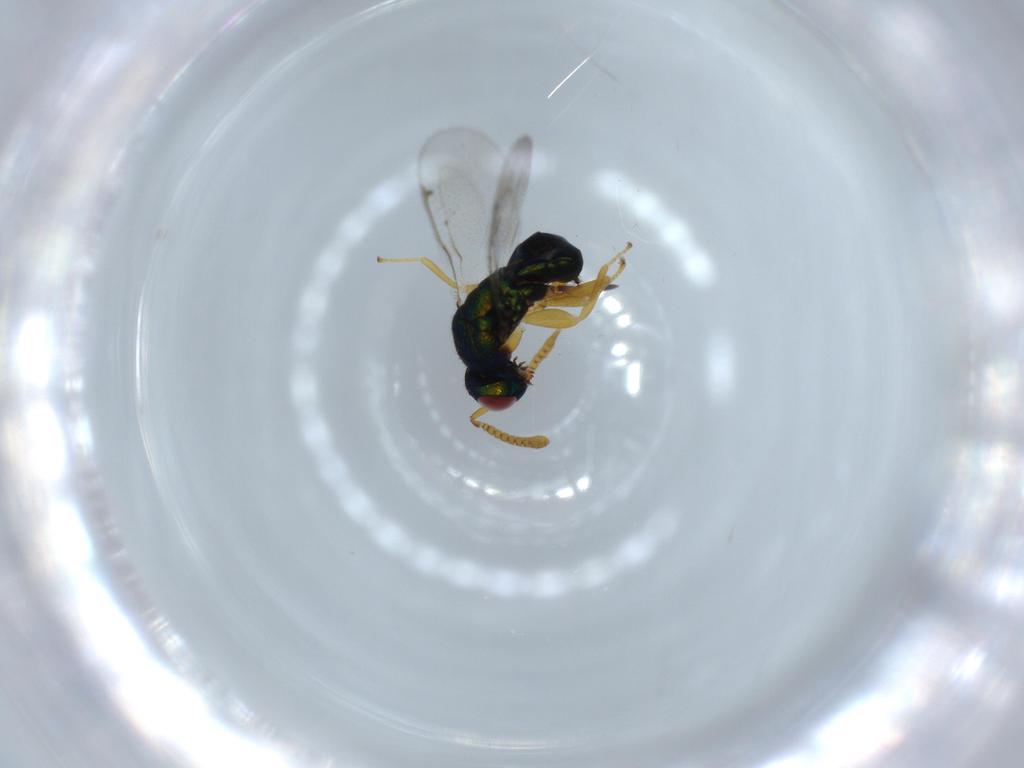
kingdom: Animalia
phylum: Arthropoda
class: Insecta
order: Hymenoptera
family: Torymidae
